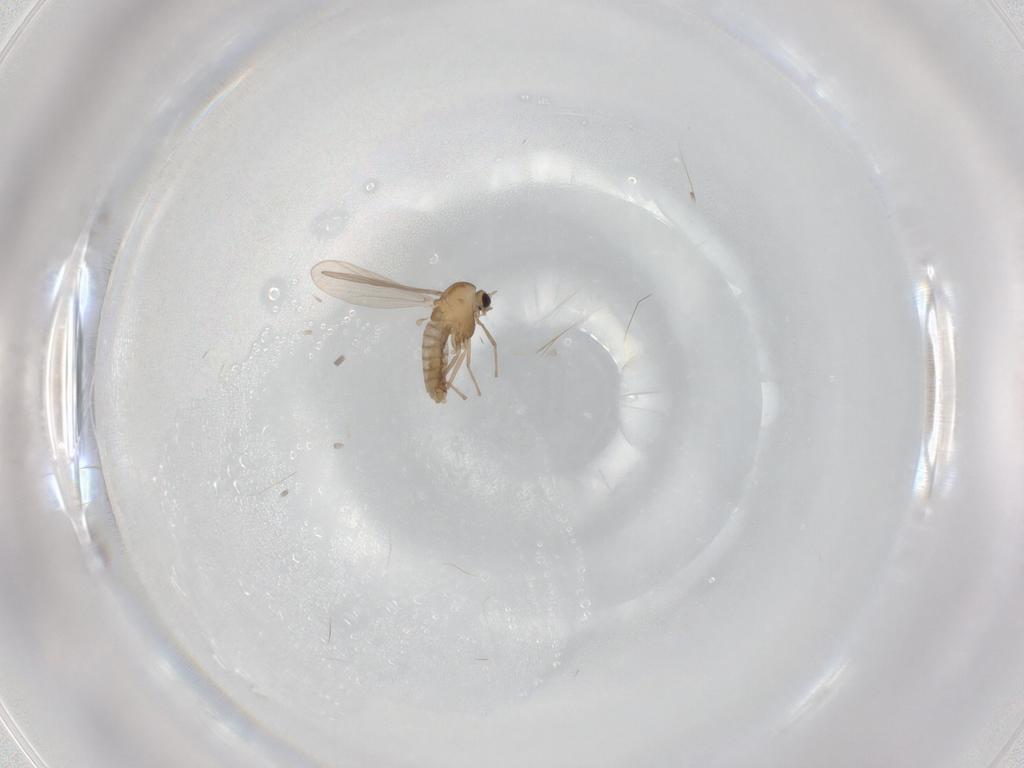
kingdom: Animalia
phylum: Arthropoda
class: Insecta
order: Diptera
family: Chironomidae
